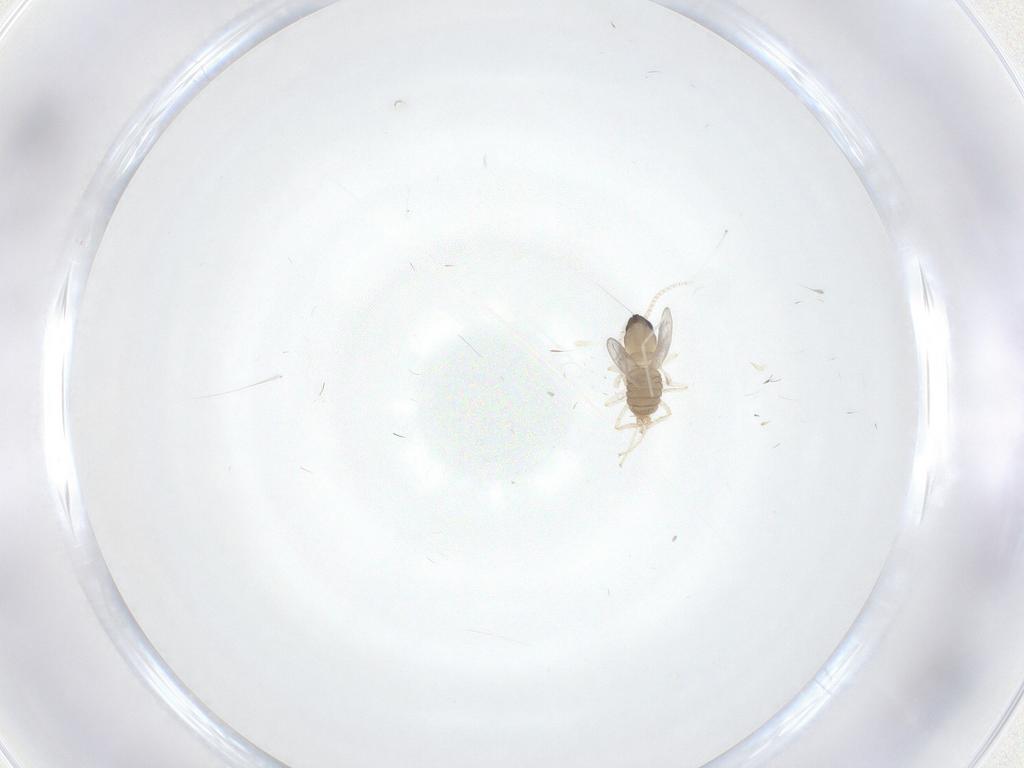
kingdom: Animalia
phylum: Arthropoda
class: Insecta
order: Diptera
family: Cecidomyiidae
